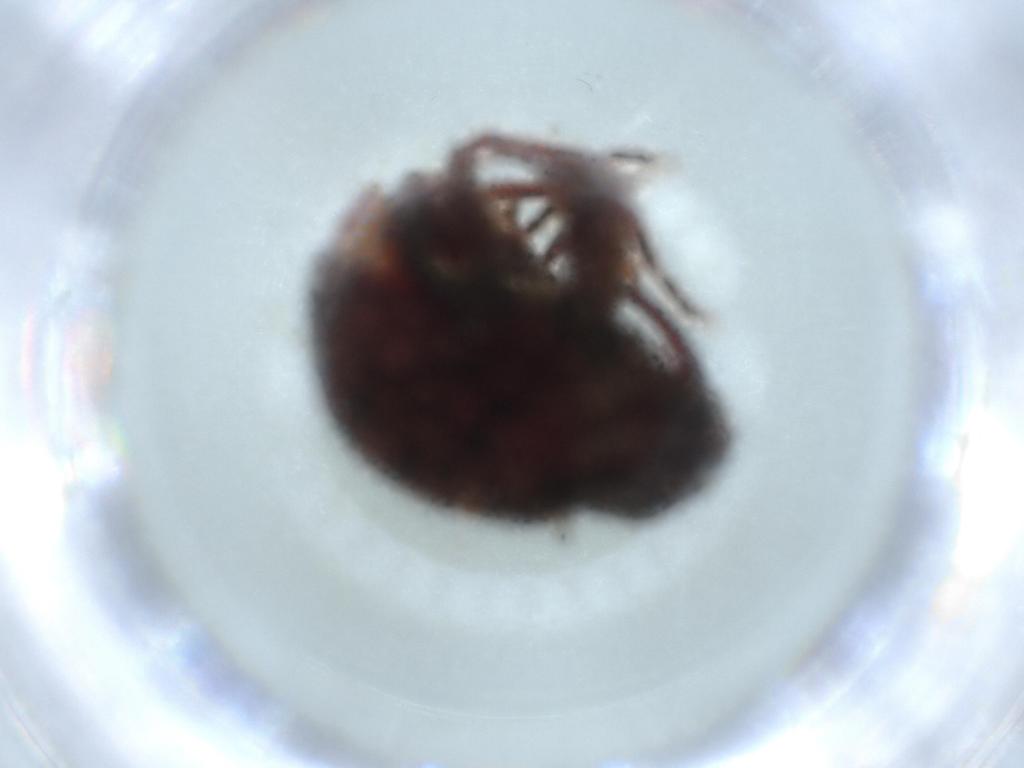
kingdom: Animalia
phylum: Arthropoda
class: Insecta
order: Coleoptera
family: Curculionidae
